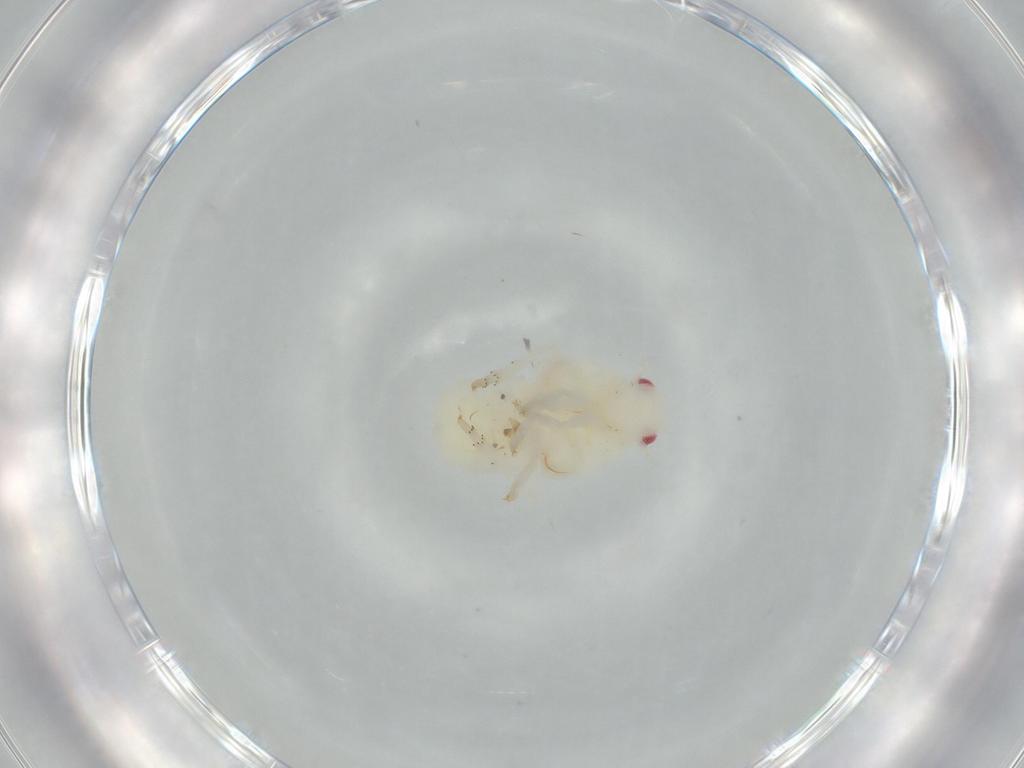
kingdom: Animalia
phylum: Arthropoda
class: Insecta
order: Hemiptera
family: Flatidae
